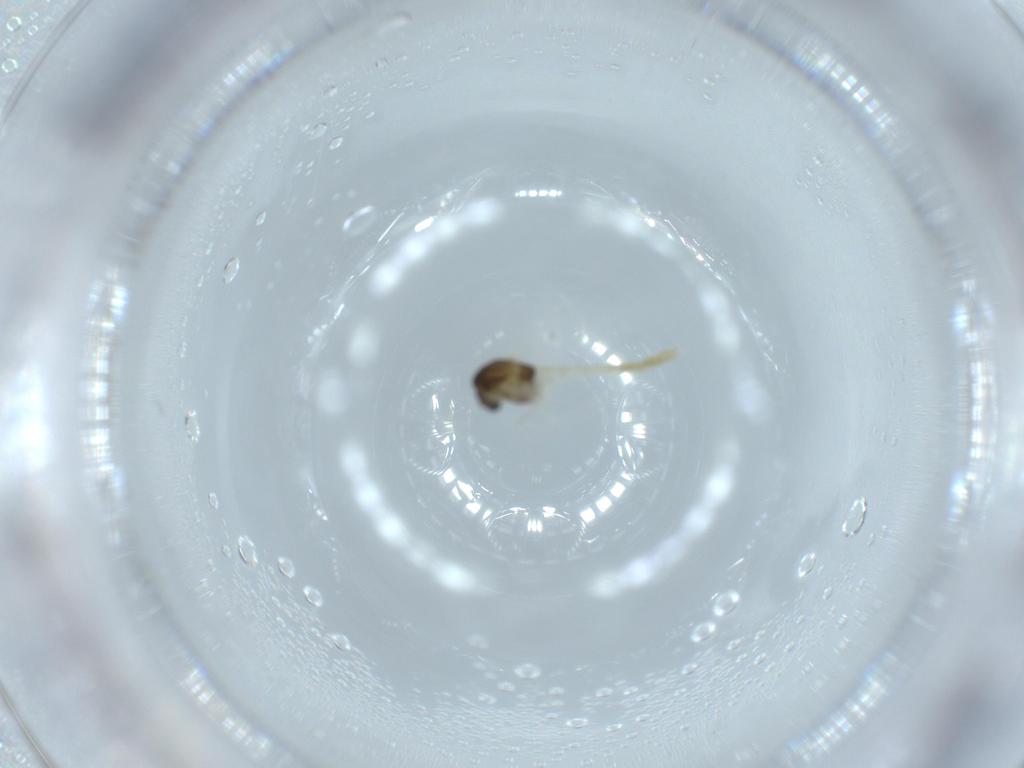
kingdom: Animalia
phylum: Arthropoda
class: Insecta
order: Diptera
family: Chironomidae
